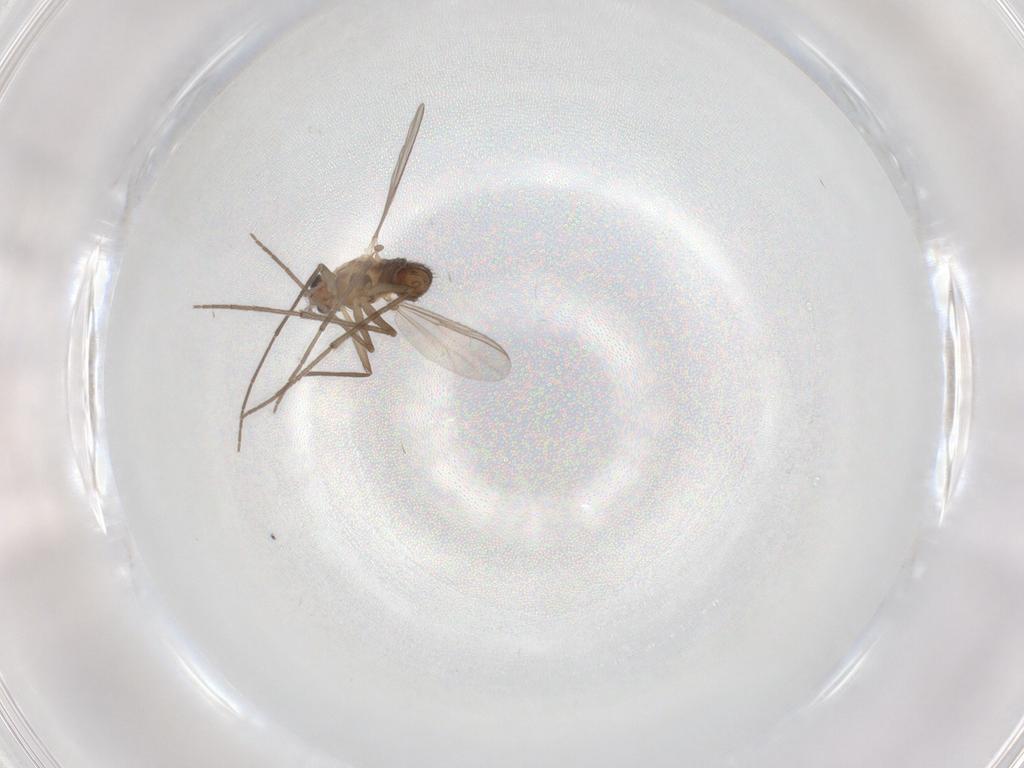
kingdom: Animalia
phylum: Arthropoda
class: Insecta
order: Diptera
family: Chironomidae
